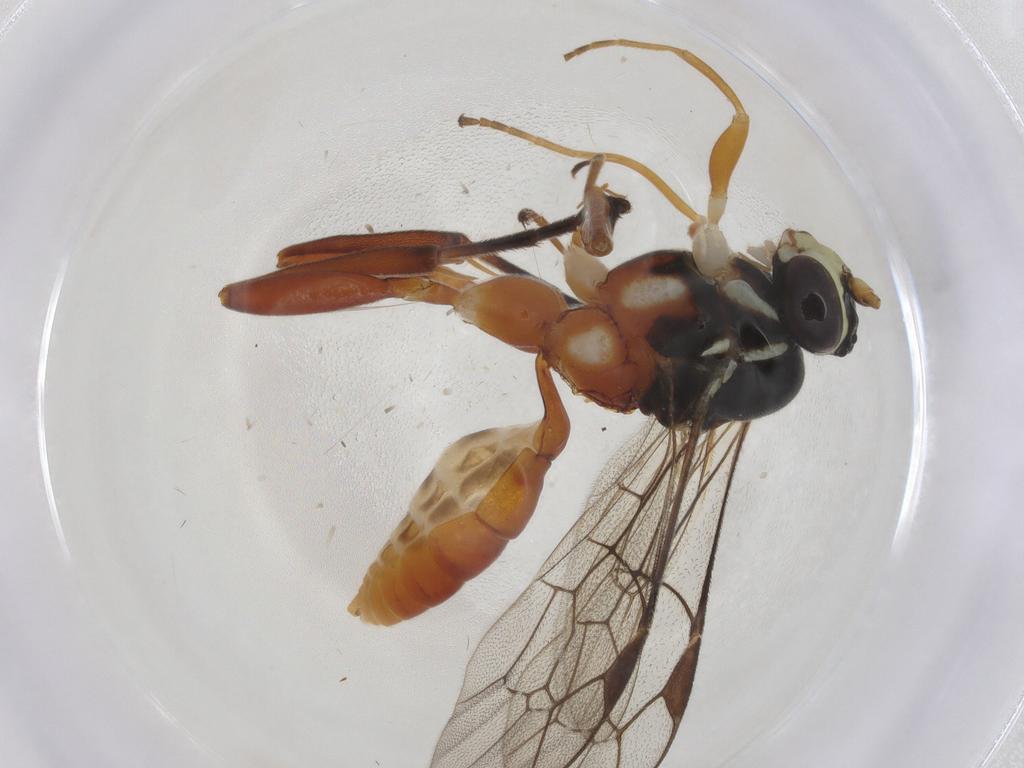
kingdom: Animalia
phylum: Arthropoda
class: Insecta
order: Hymenoptera
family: Ichneumonidae
